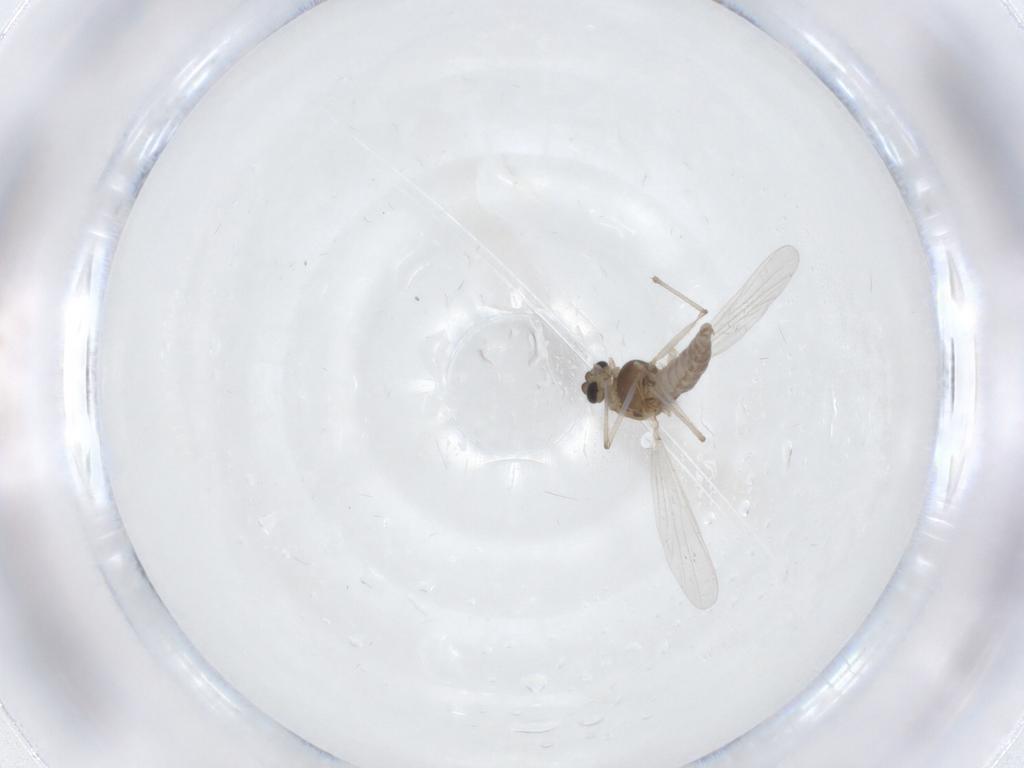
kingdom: Animalia
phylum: Arthropoda
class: Insecta
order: Diptera
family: Chironomidae
